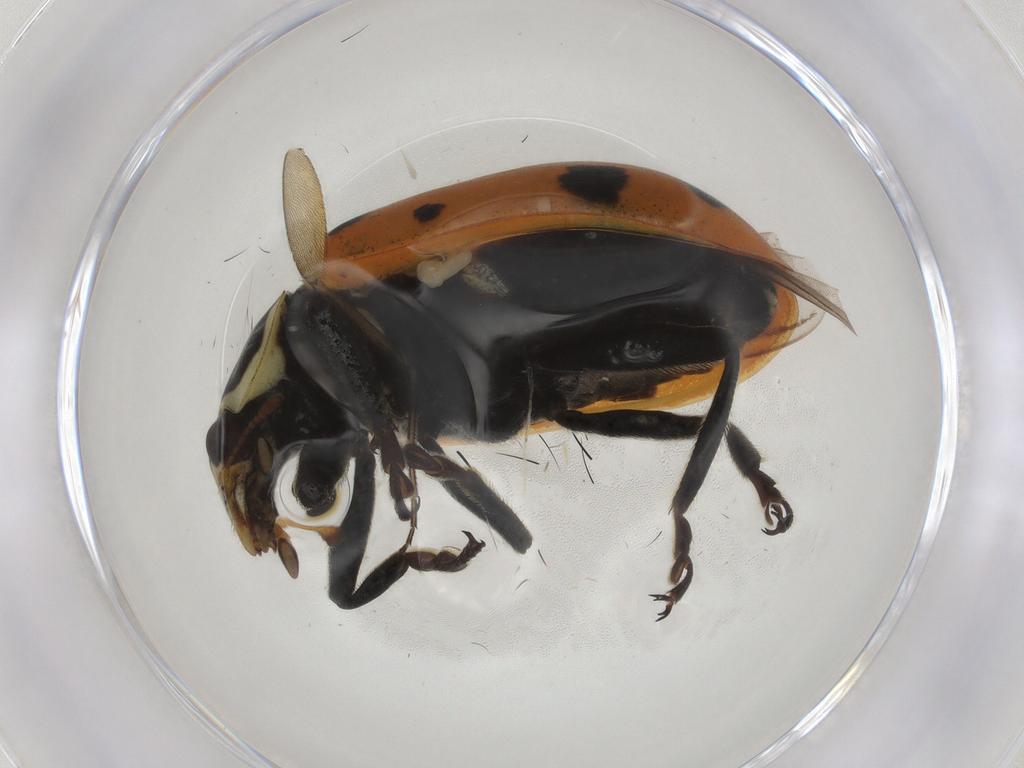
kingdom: Animalia
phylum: Arthropoda
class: Insecta
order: Coleoptera
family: Coccinellidae
